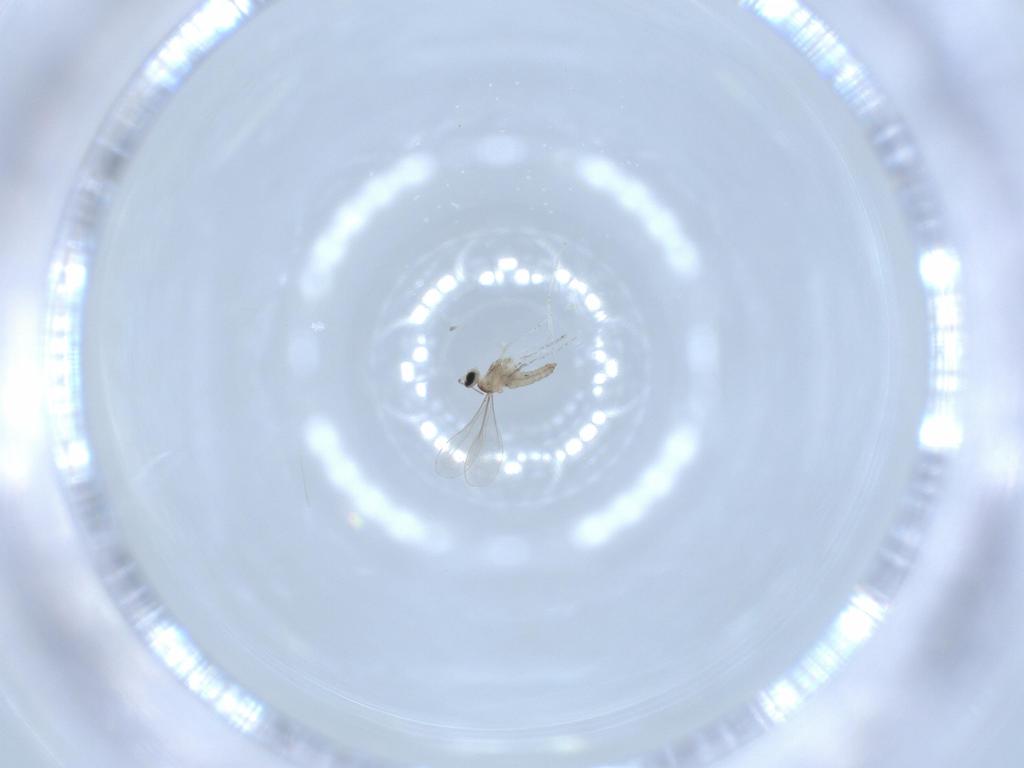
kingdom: Animalia
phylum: Arthropoda
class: Insecta
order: Diptera
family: Cecidomyiidae
